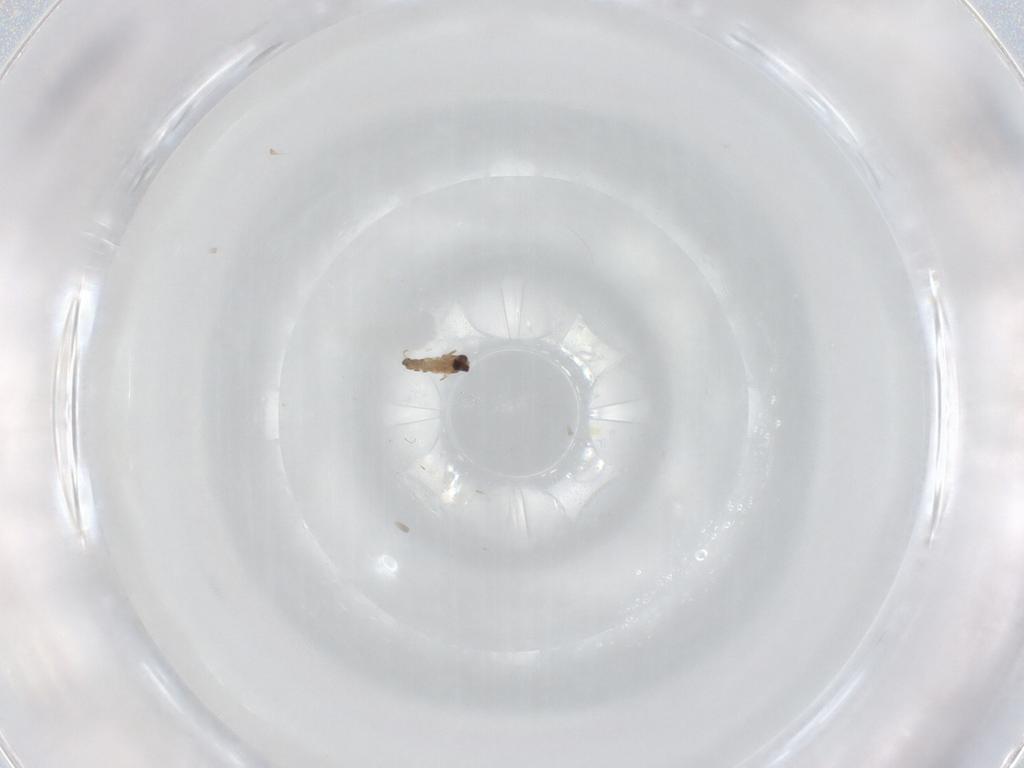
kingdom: Animalia
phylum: Arthropoda
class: Insecta
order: Diptera
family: Cecidomyiidae
